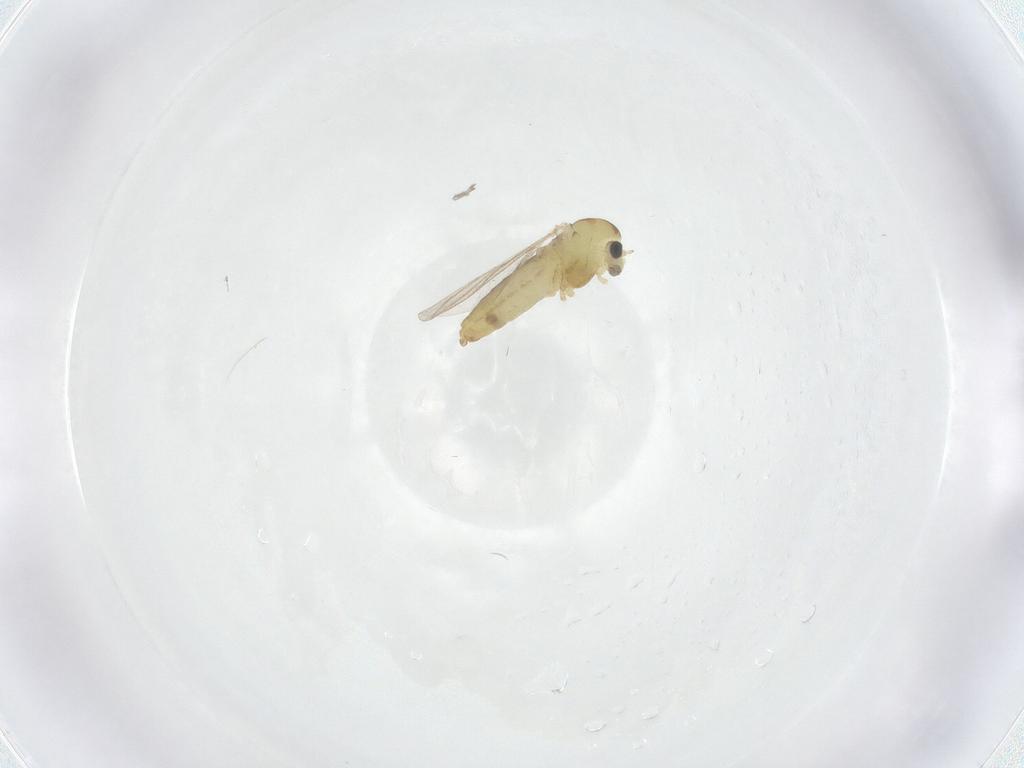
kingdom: Animalia
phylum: Arthropoda
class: Insecta
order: Diptera
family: Chironomidae
